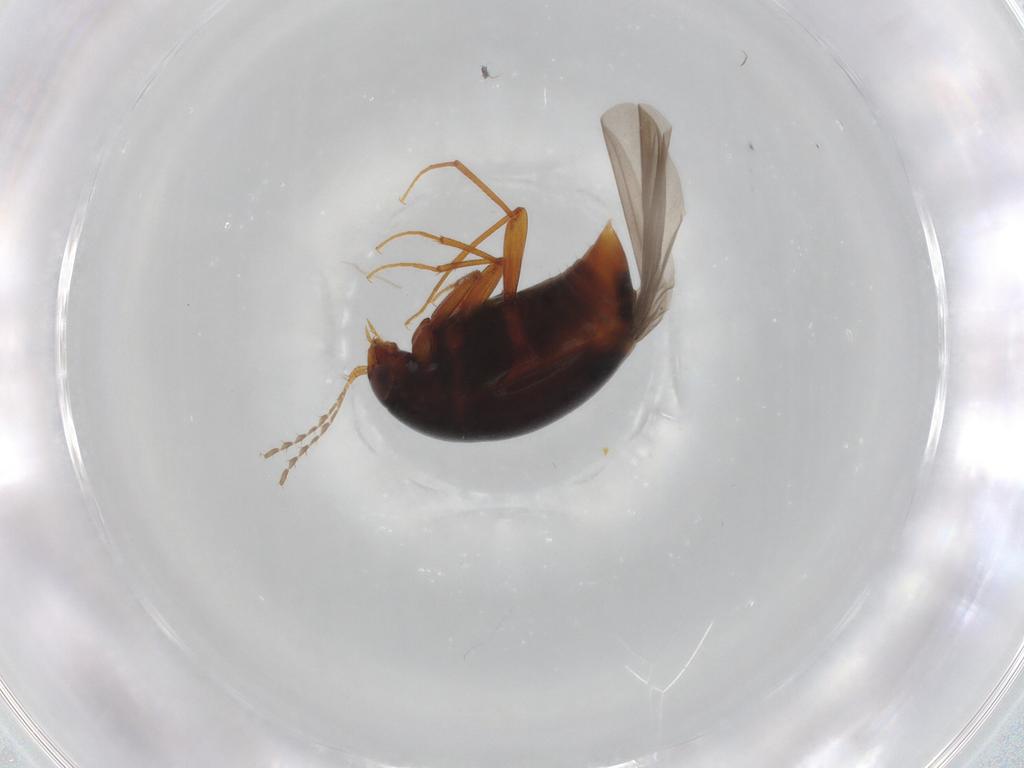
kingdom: Animalia
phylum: Arthropoda
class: Insecta
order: Coleoptera
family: Staphylinidae
